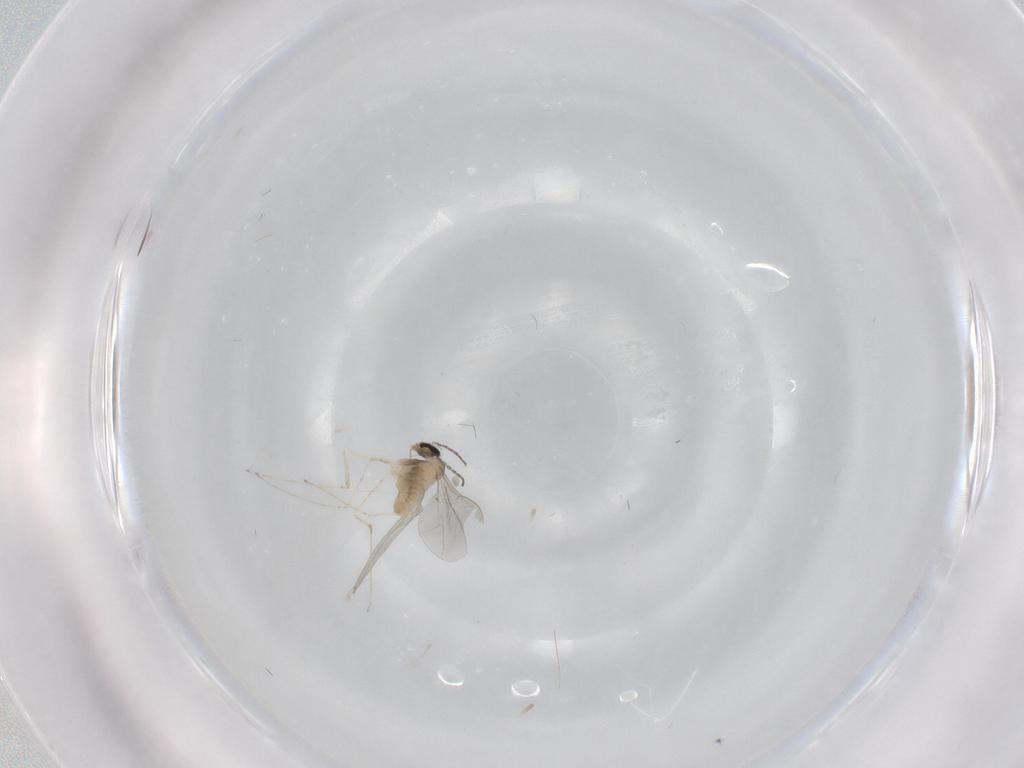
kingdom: Animalia
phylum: Arthropoda
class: Insecta
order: Diptera
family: Cecidomyiidae
